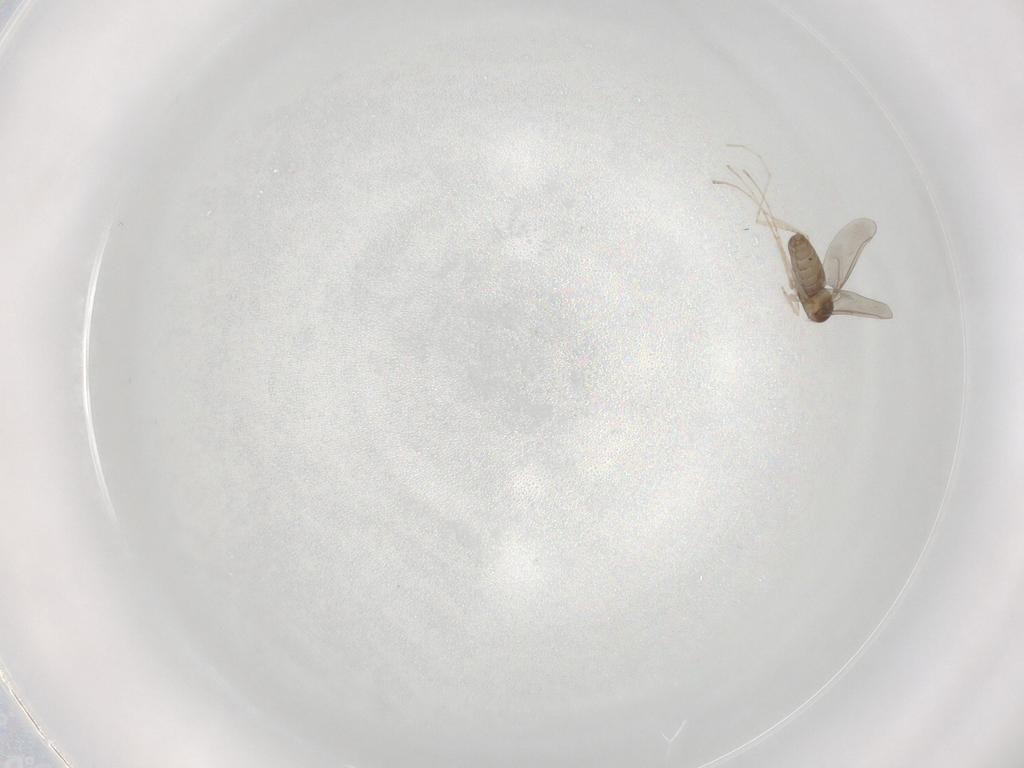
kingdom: Animalia
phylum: Arthropoda
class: Insecta
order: Diptera
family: Cecidomyiidae
